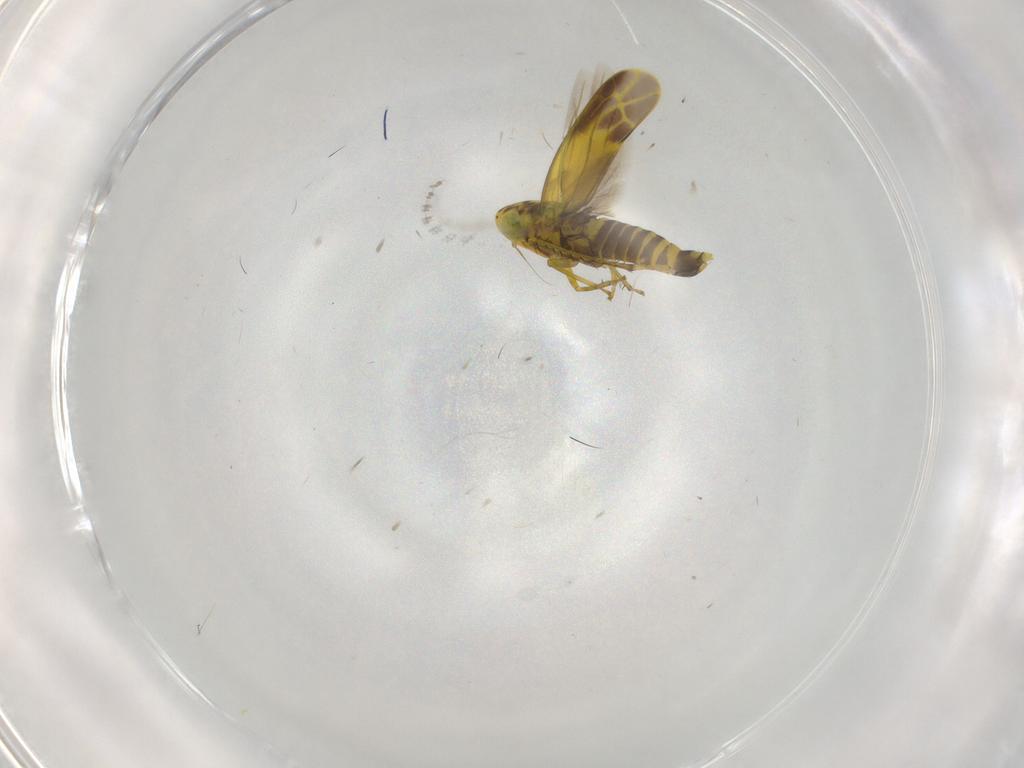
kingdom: Animalia
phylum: Arthropoda
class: Insecta
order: Hemiptera
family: Cicadellidae
